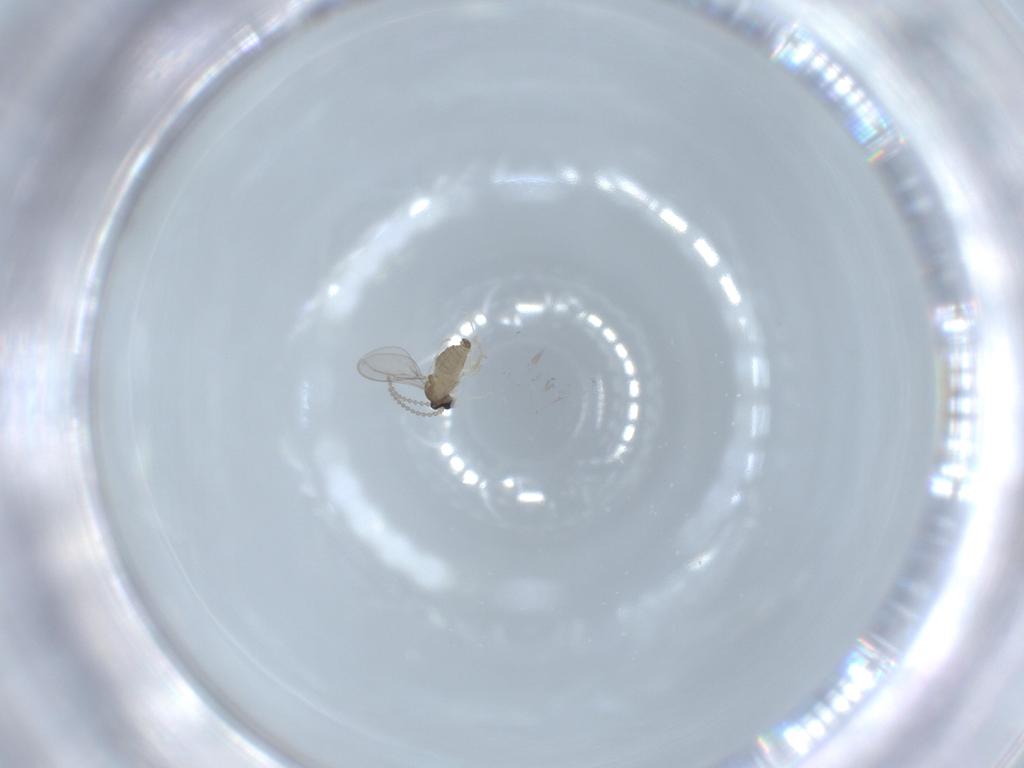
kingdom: Animalia
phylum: Arthropoda
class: Insecta
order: Diptera
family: Cecidomyiidae
